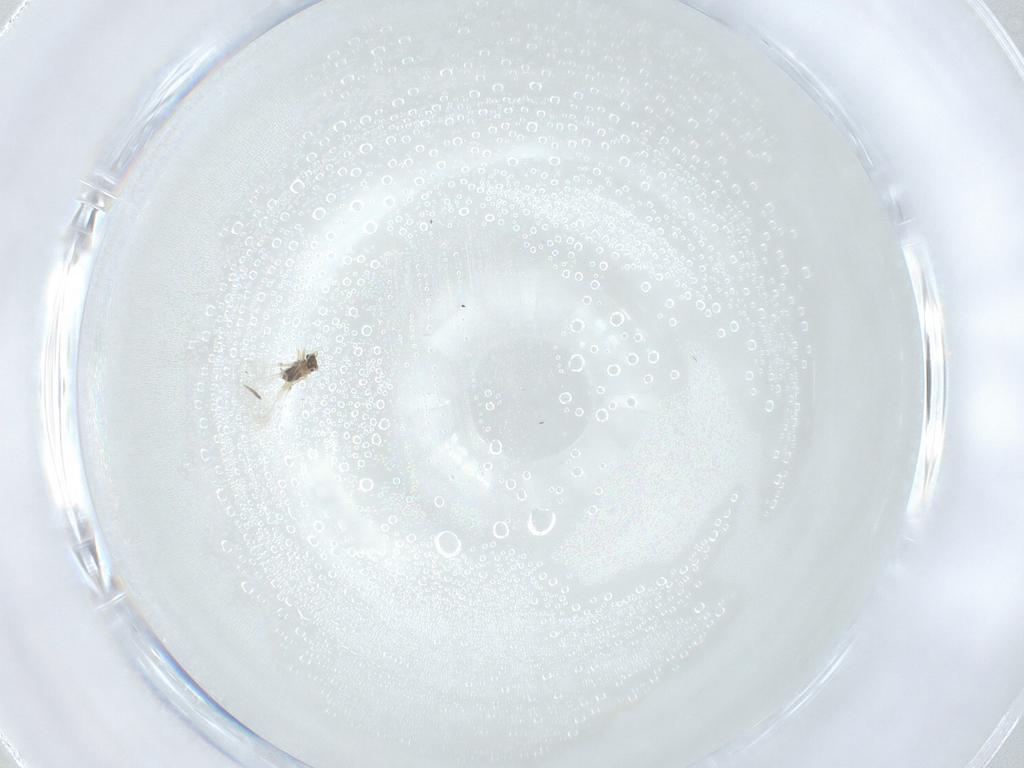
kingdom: Animalia
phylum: Arthropoda
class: Insecta
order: Hymenoptera
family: Mymaridae
